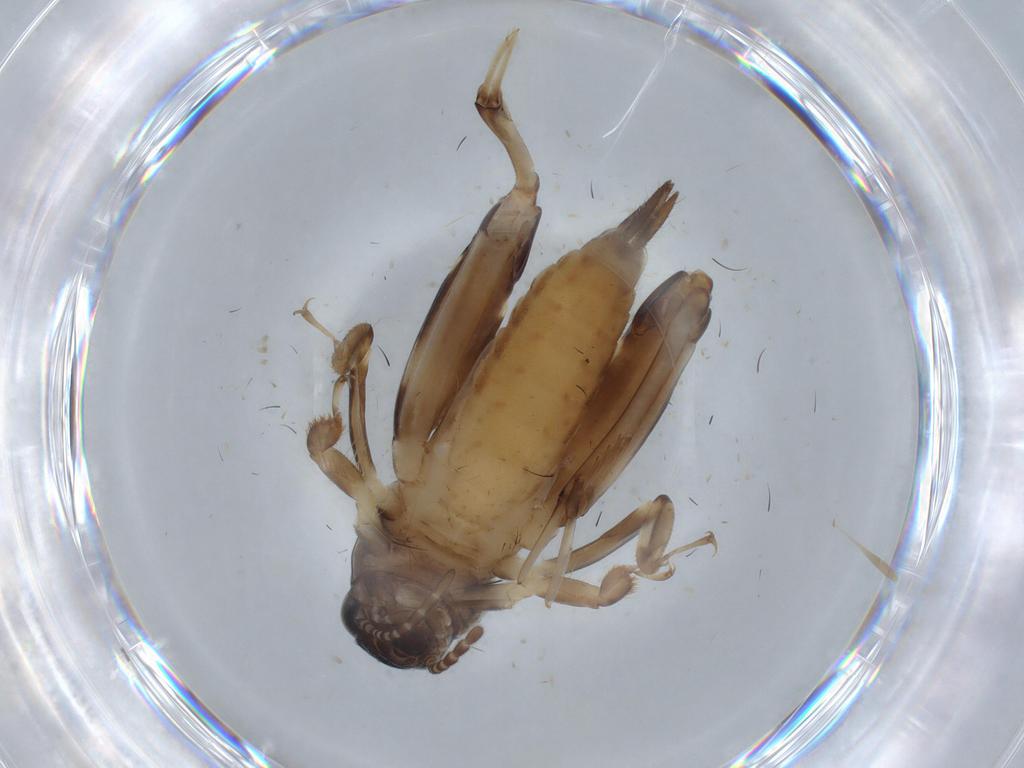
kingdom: Animalia
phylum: Arthropoda
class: Insecta
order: Orthoptera
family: Tridactylidae
